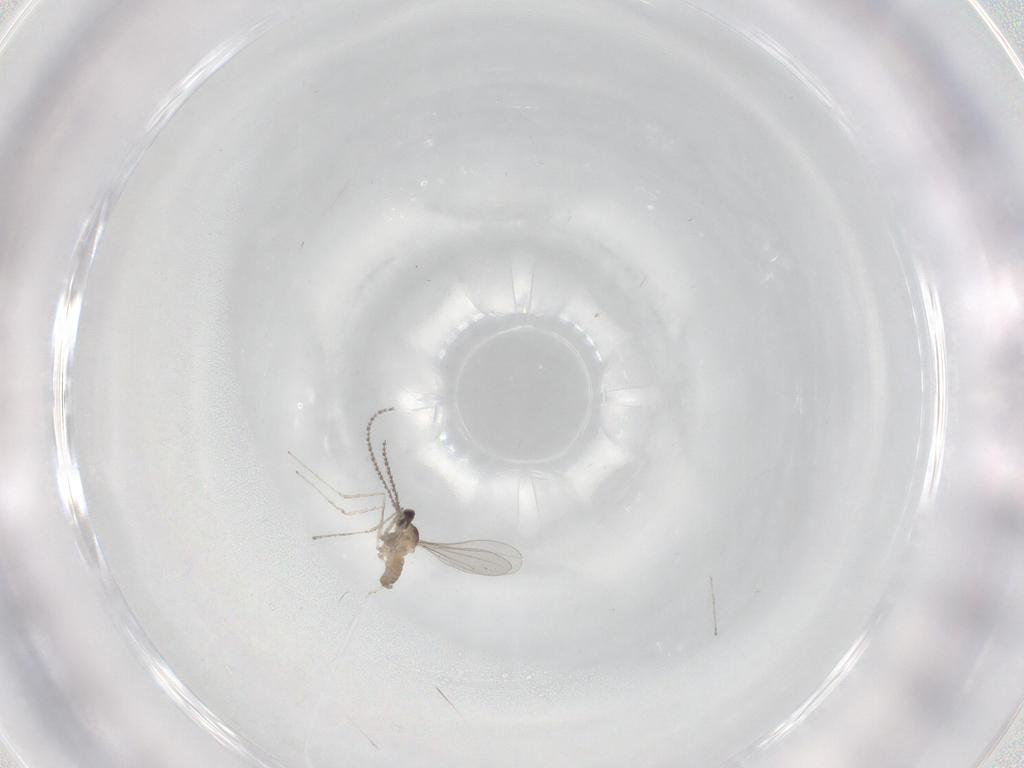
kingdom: Animalia
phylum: Arthropoda
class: Insecta
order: Diptera
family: Cecidomyiidae
